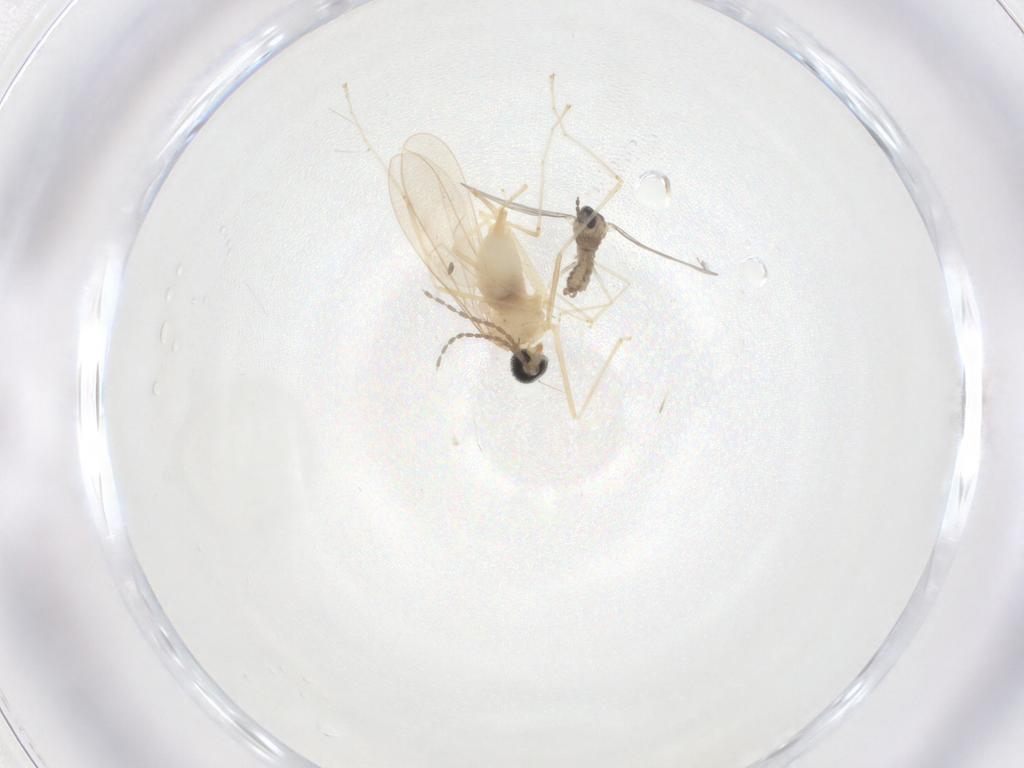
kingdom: Animalia
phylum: Arthropoda
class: Insecta
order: Diptera
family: Cecidomyiidae
